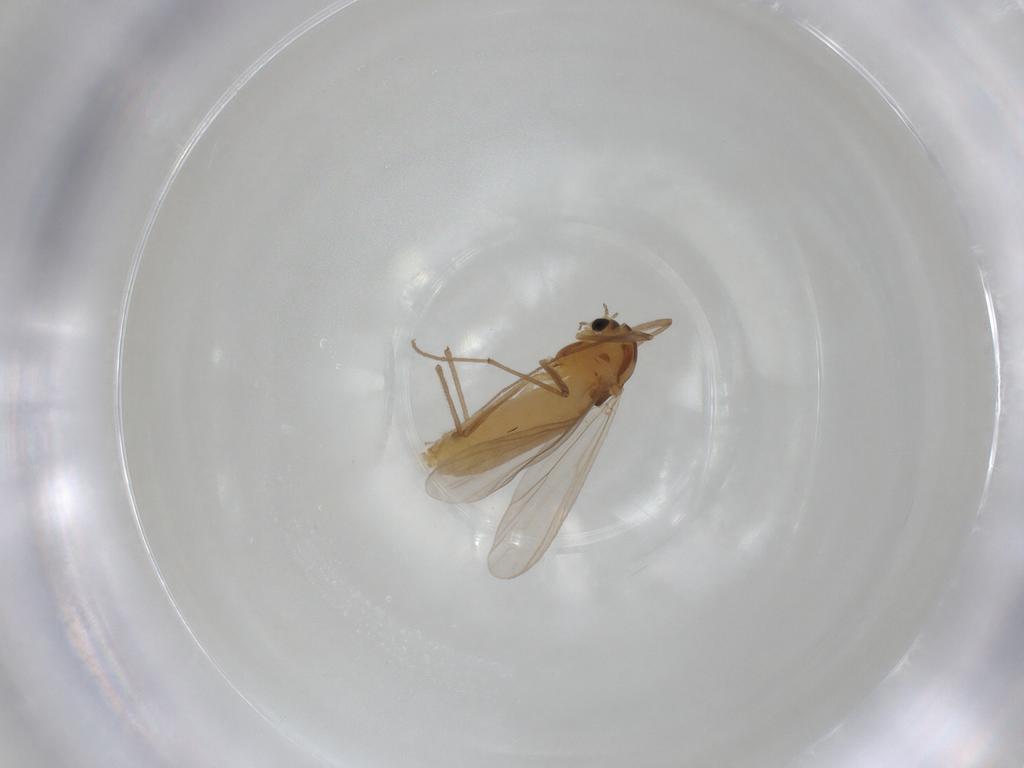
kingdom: Animalia
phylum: Arthropoda
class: Insecta
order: Diptera
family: Chironomidae
